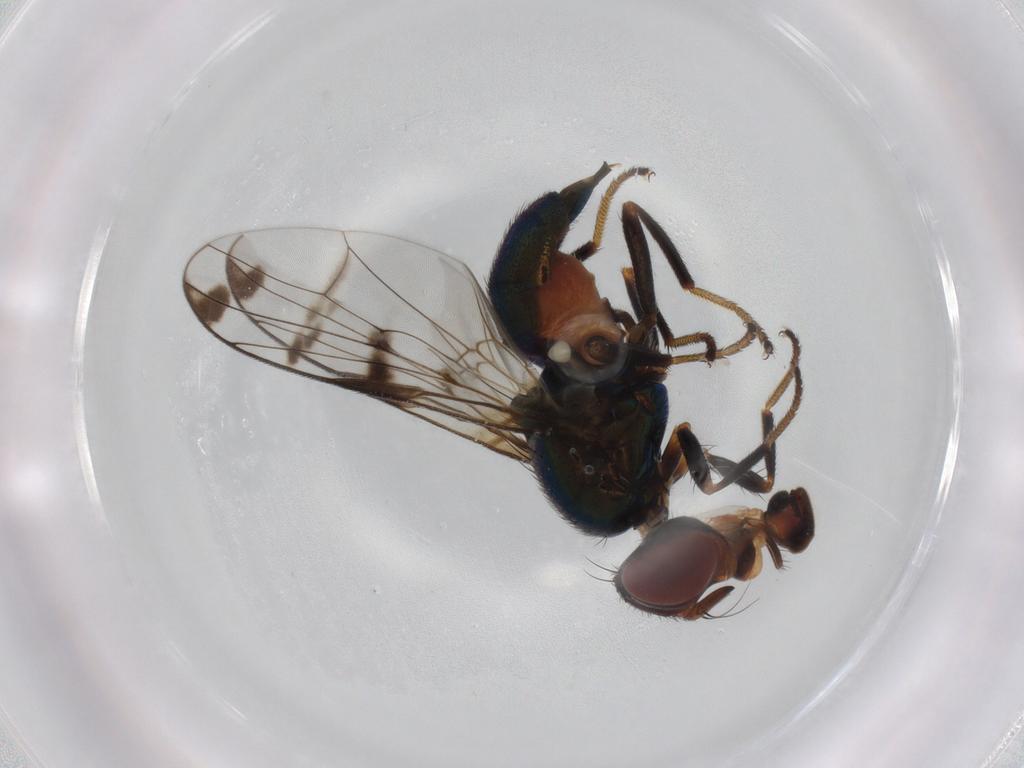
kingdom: Animalia
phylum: Arthropoda
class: Insecta
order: Diptera
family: Platystomatidae
